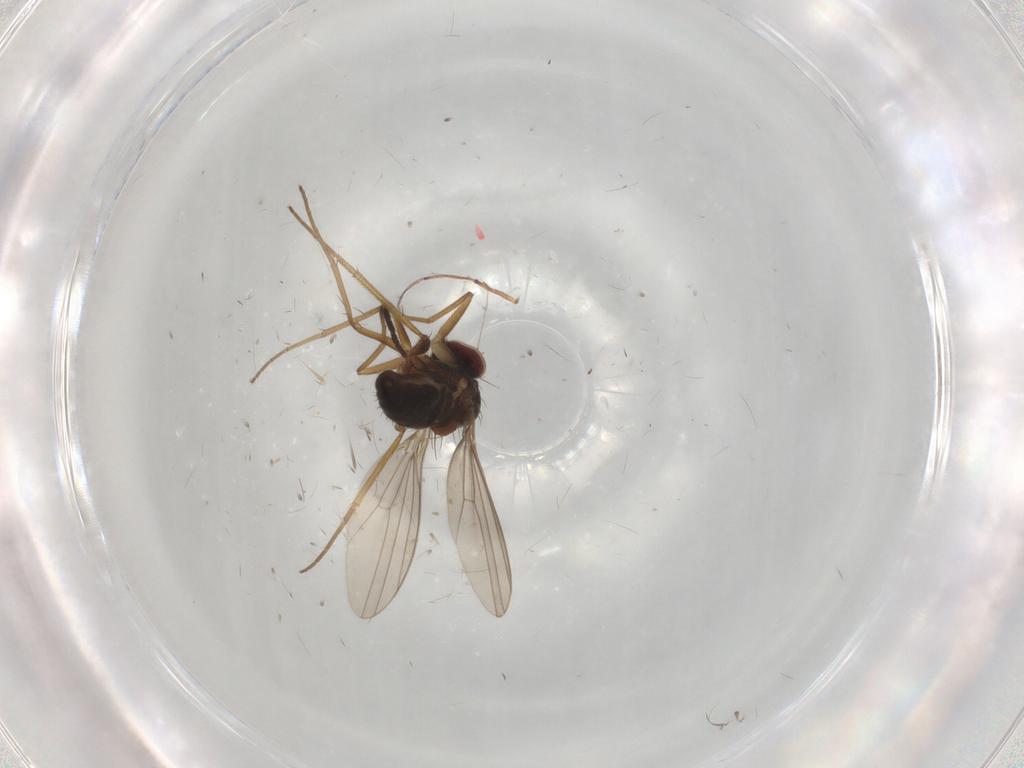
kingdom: Animalia
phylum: Arthropoda
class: Insecta
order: Diptera
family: Dolichopodidae
